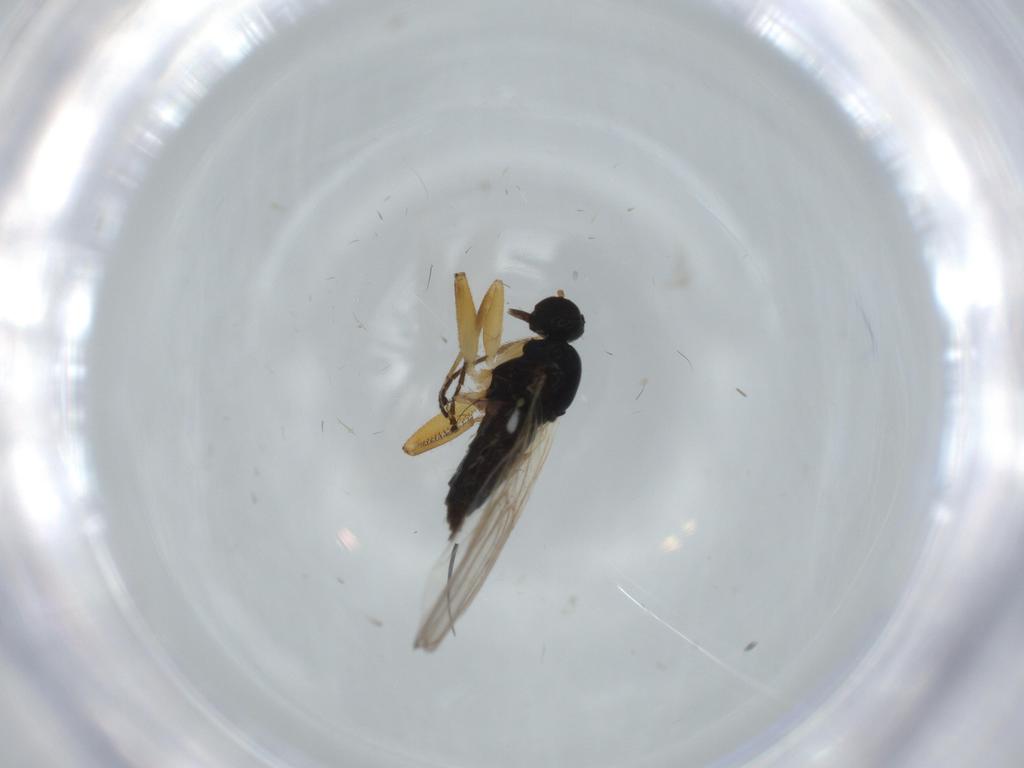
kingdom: Animalia
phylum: Arthropoda
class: Insecta
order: Diptera
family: Hybotidae
